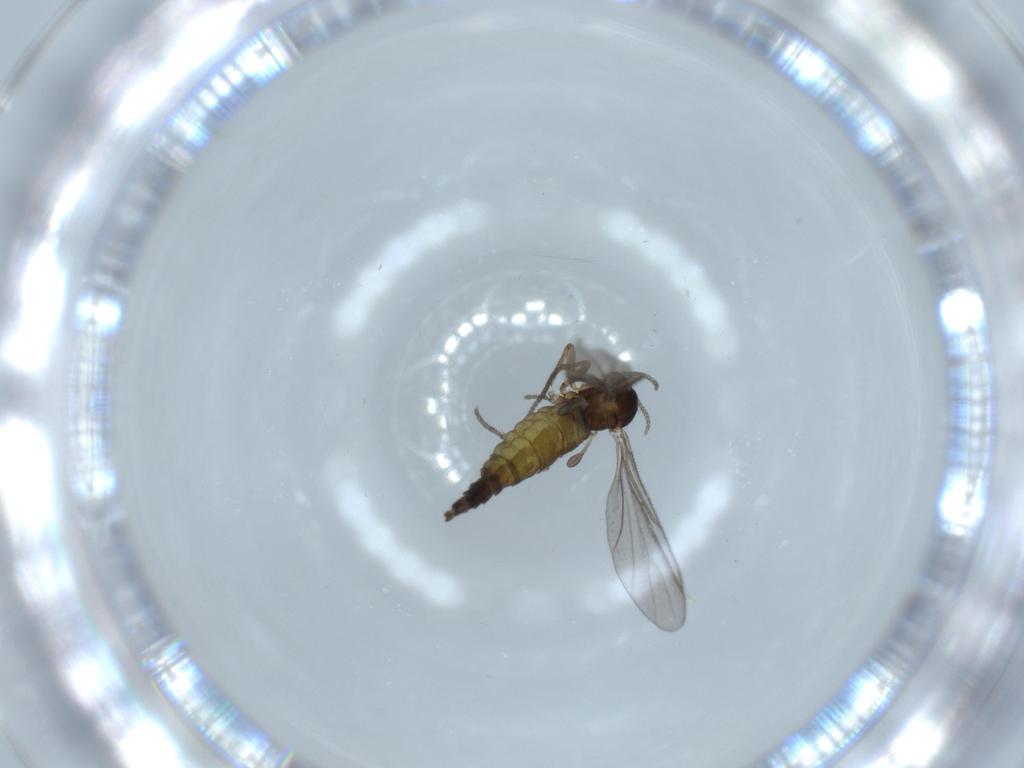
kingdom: Animalia
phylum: Arthropoda
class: Insecta
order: Diptera
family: Sciaridae
